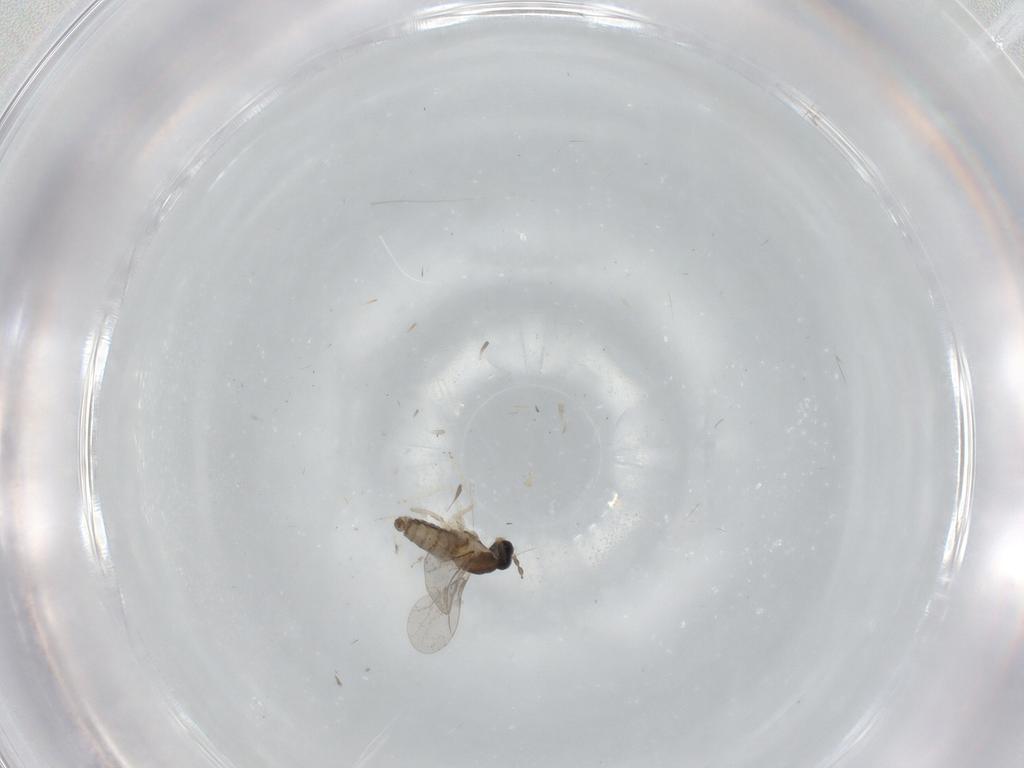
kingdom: Animalia
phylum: Arthropoda
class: Insecta
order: Diptera
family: Cecidomyiidae
